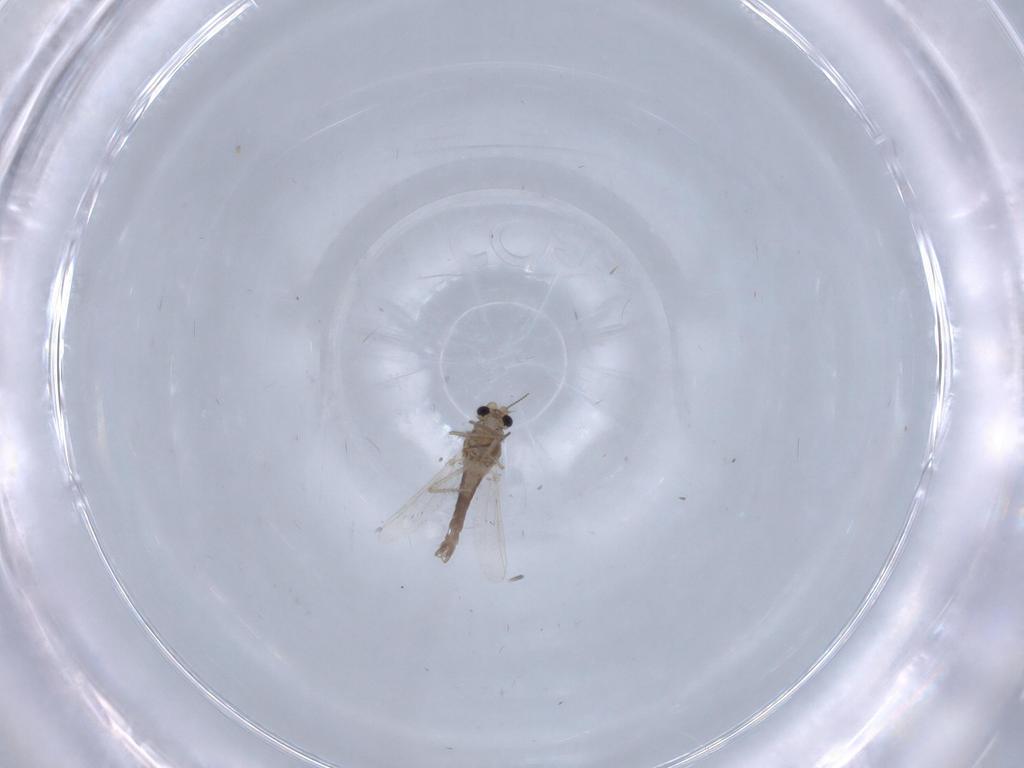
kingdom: Animalia
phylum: Arthropoda
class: Insecta
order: Diptera
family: Chironomidae
